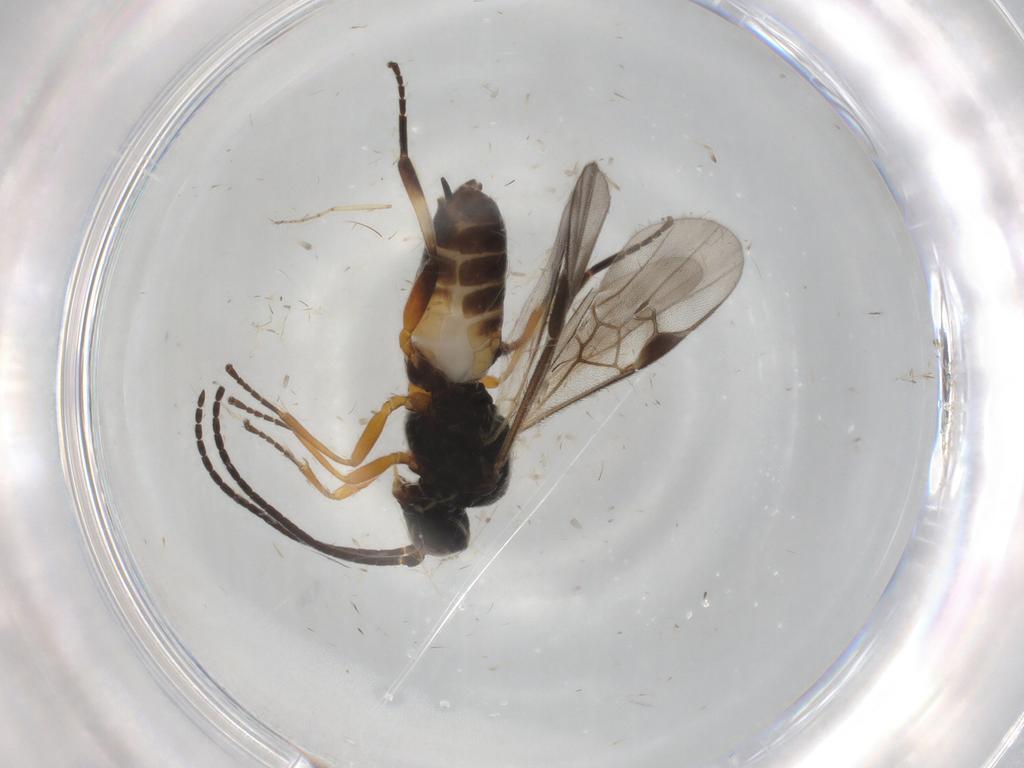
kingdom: Animalia
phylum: Arthropoda
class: Insecta
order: Hymenoptera
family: Braconidae
